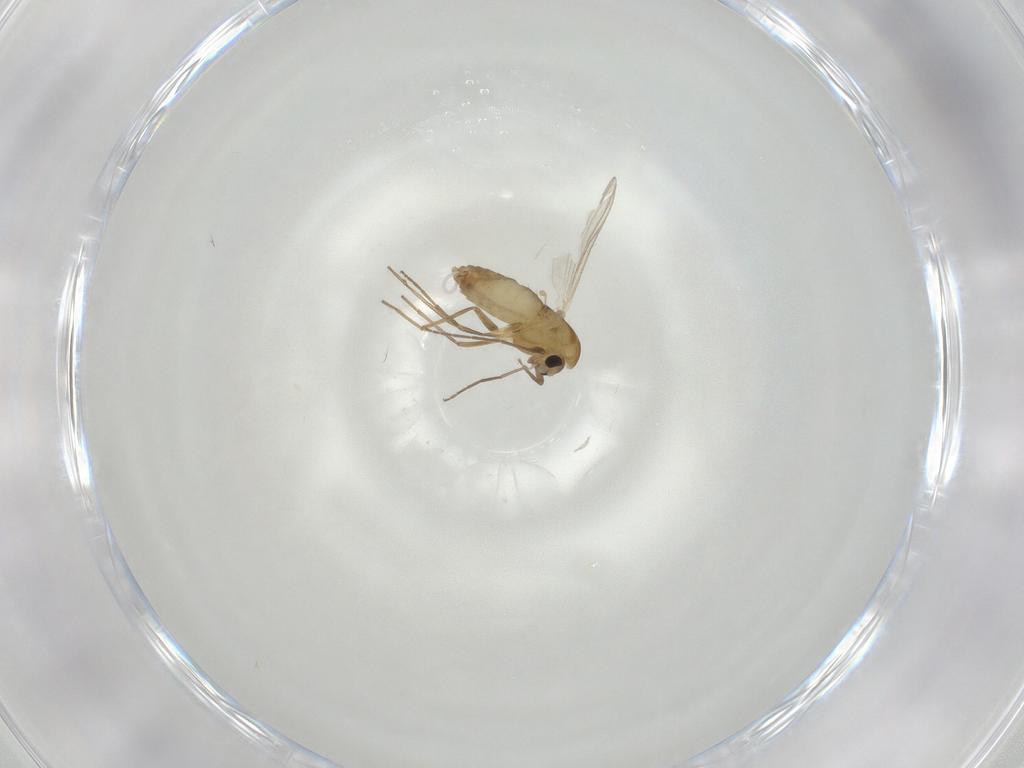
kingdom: Animalia
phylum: Arthropoda
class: Insecta
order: Diptera
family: Chironomidae
